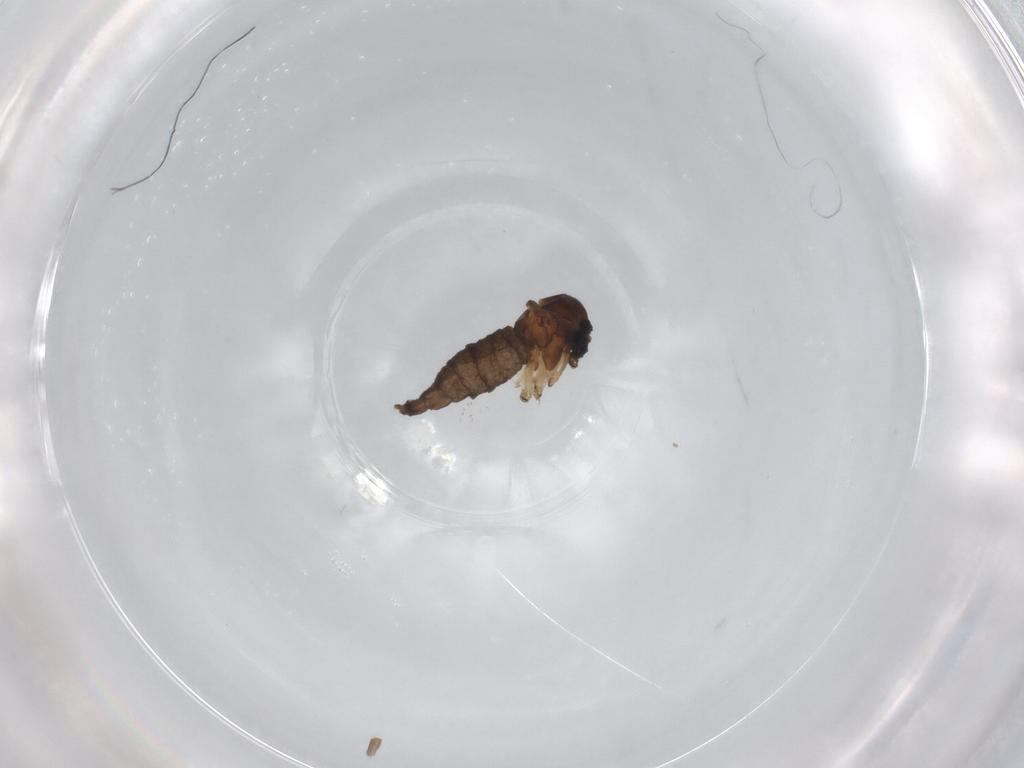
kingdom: Animalia
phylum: Arthropoda
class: Insecta
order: Diptera
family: Sciaridae
